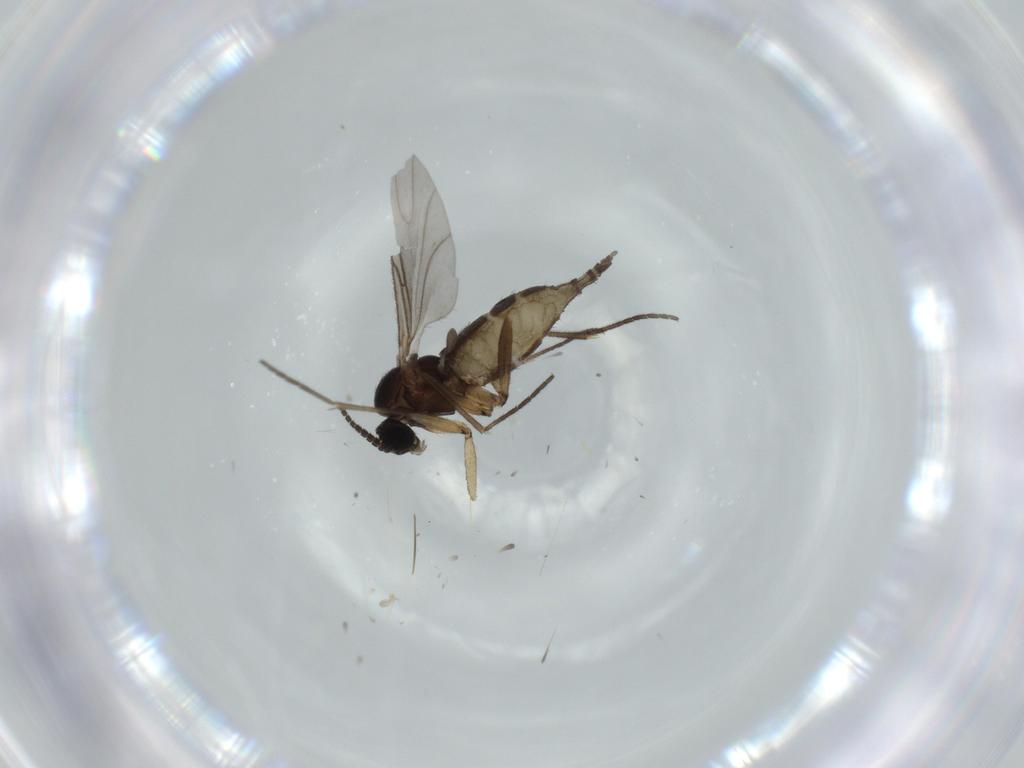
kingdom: Animalia
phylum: Arthropoda
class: Insecta
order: Diptera
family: Sciaridae
